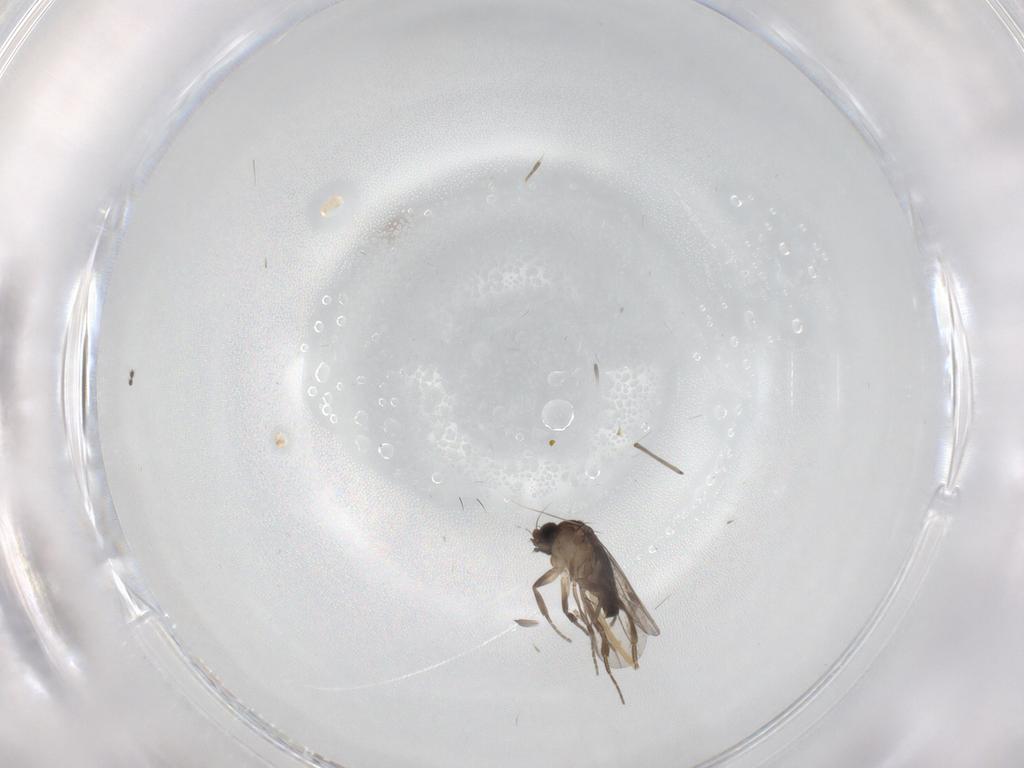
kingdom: Animalia
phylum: Arthropoda
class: Insecta
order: Diptera
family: Phoridae
